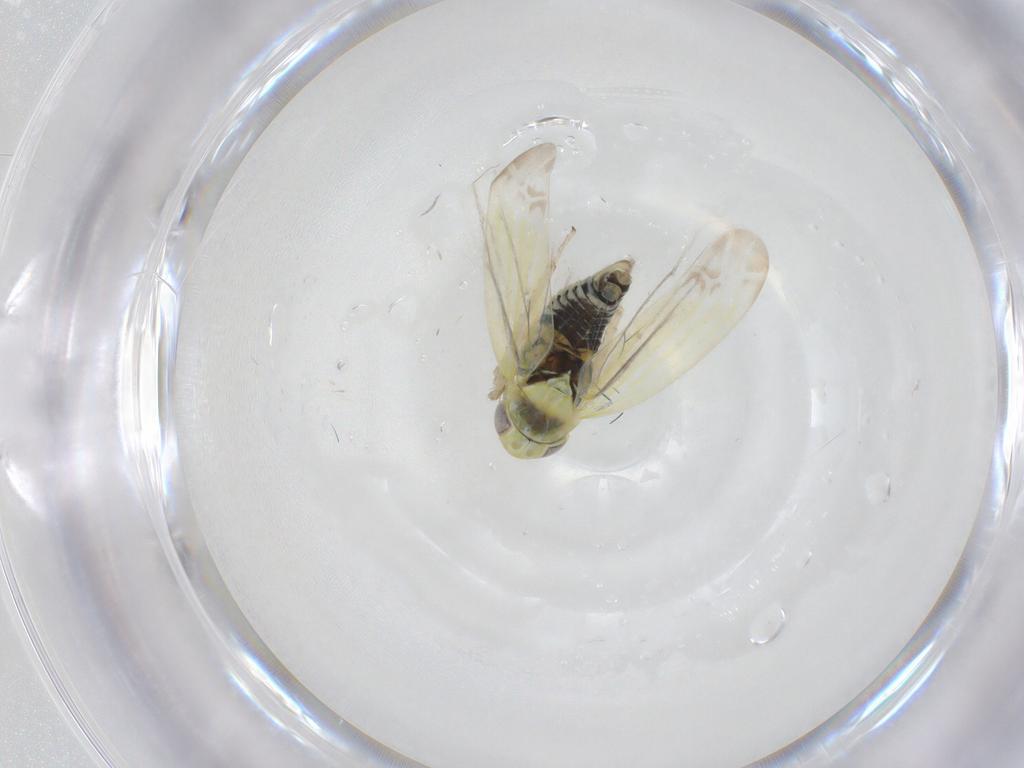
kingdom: Animalia
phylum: Arthropoda
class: Insecta
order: Hemiptera
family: Cicadellidae
